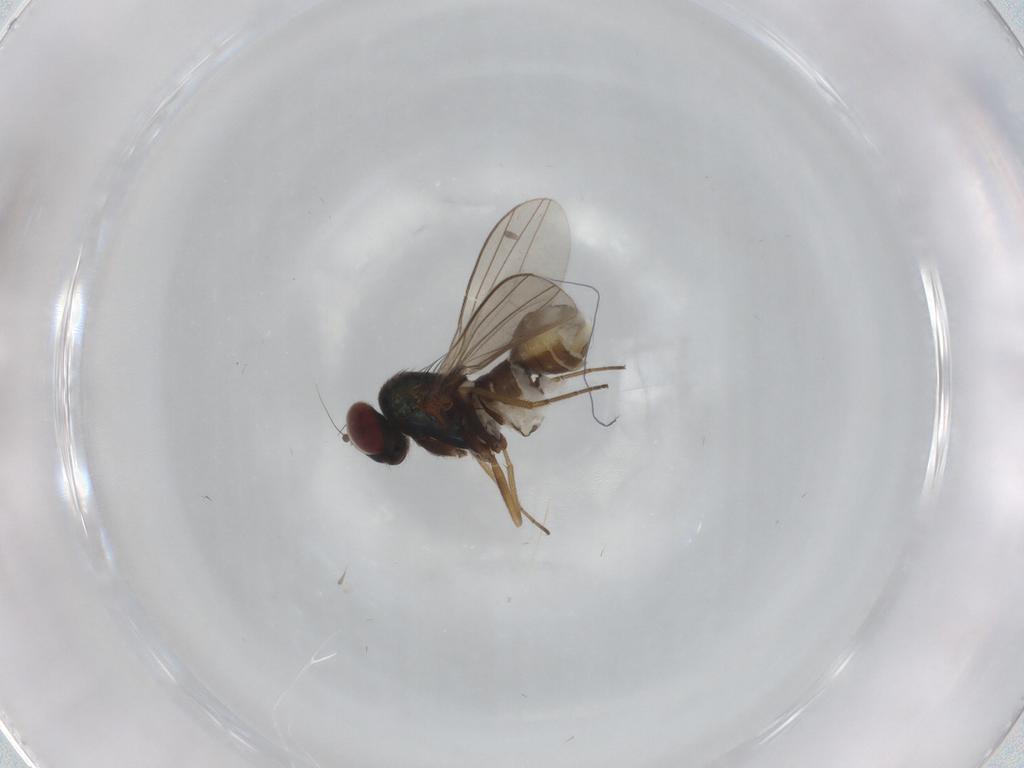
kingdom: Animalia
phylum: Arthropoda
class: Insecta
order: Diptera
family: Dolichopodidae
